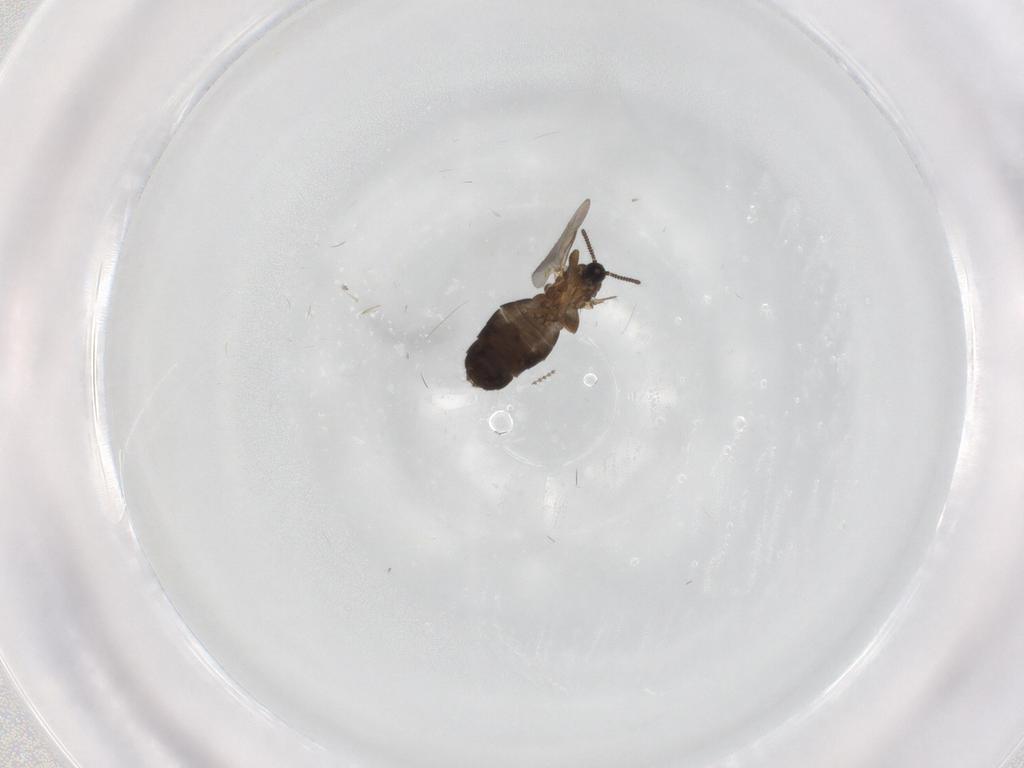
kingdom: Animalia
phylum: Arthropoda
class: Insecta
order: Diptera
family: Scatopsidae
